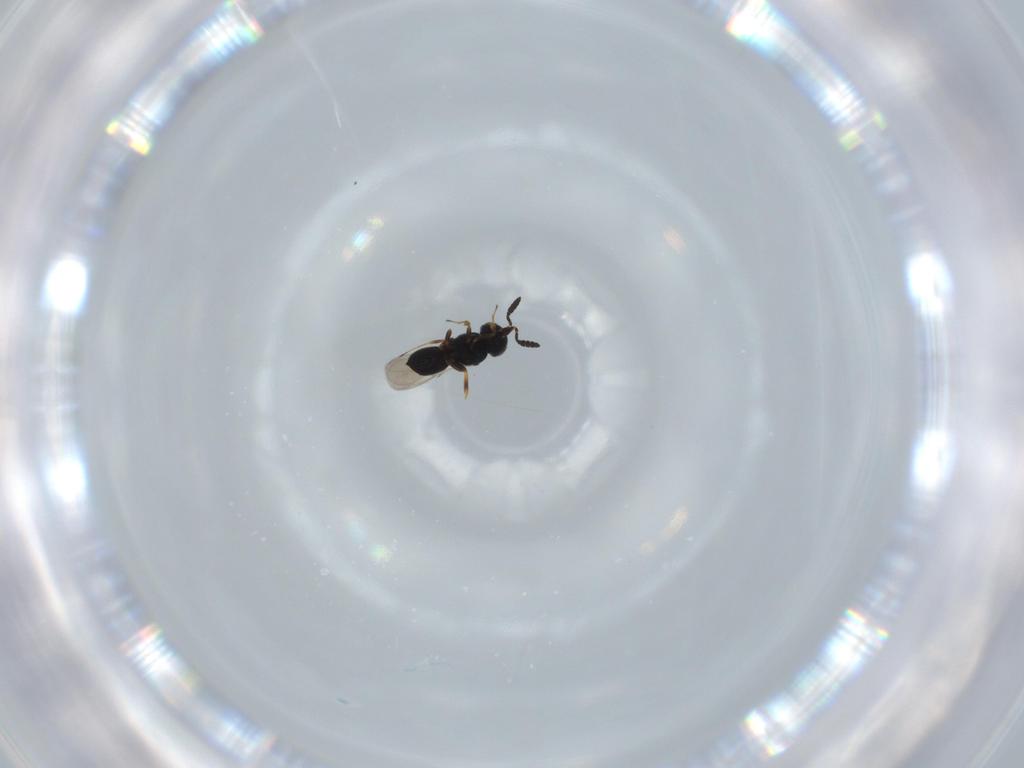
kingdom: Animalia
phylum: Arthropoda
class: Insecta
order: Hymenoptera
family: Scelionidae
